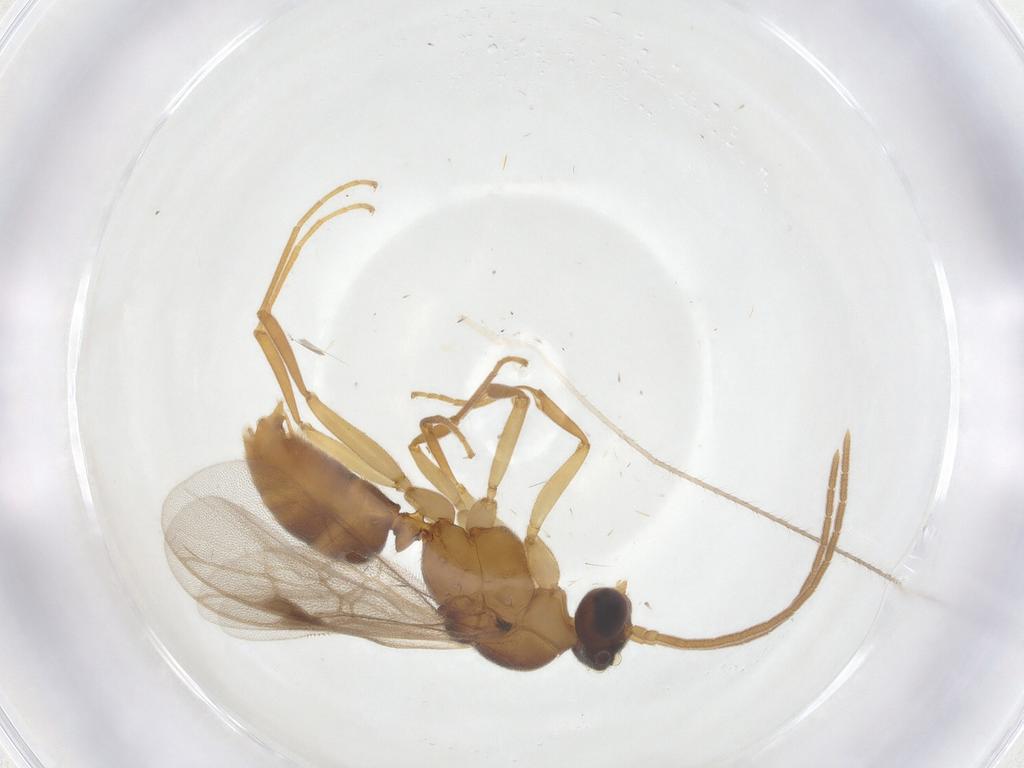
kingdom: Animalia
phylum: Arthropoda
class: Insecta
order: Hymenoptera
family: Formicidae
